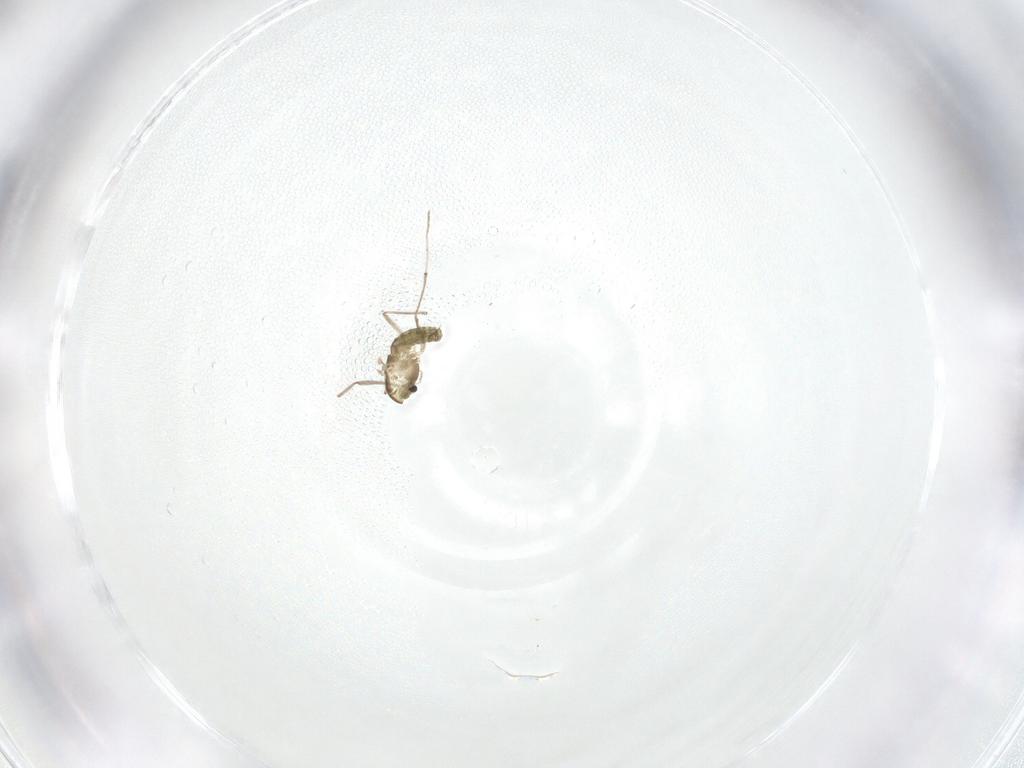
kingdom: Animalia
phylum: Arthropoda
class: Insecta
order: Diptera
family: Chironomidae
